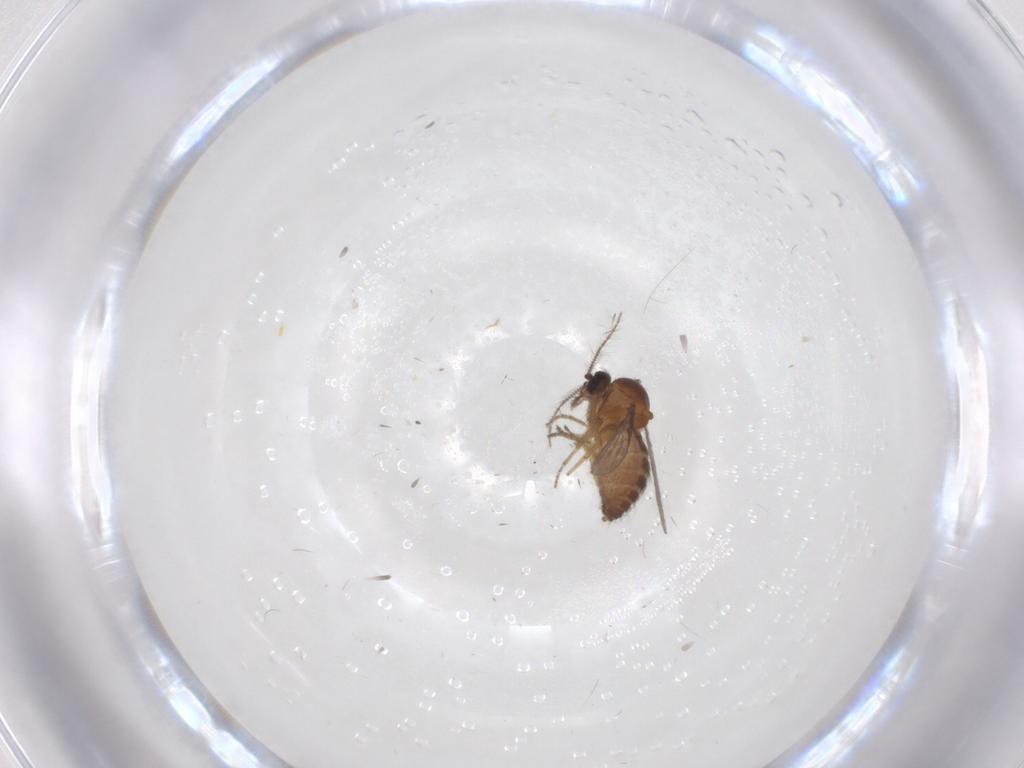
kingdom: Animalia
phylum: Arthropoda
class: Insecta
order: Diptera
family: Ceratopogonidae
